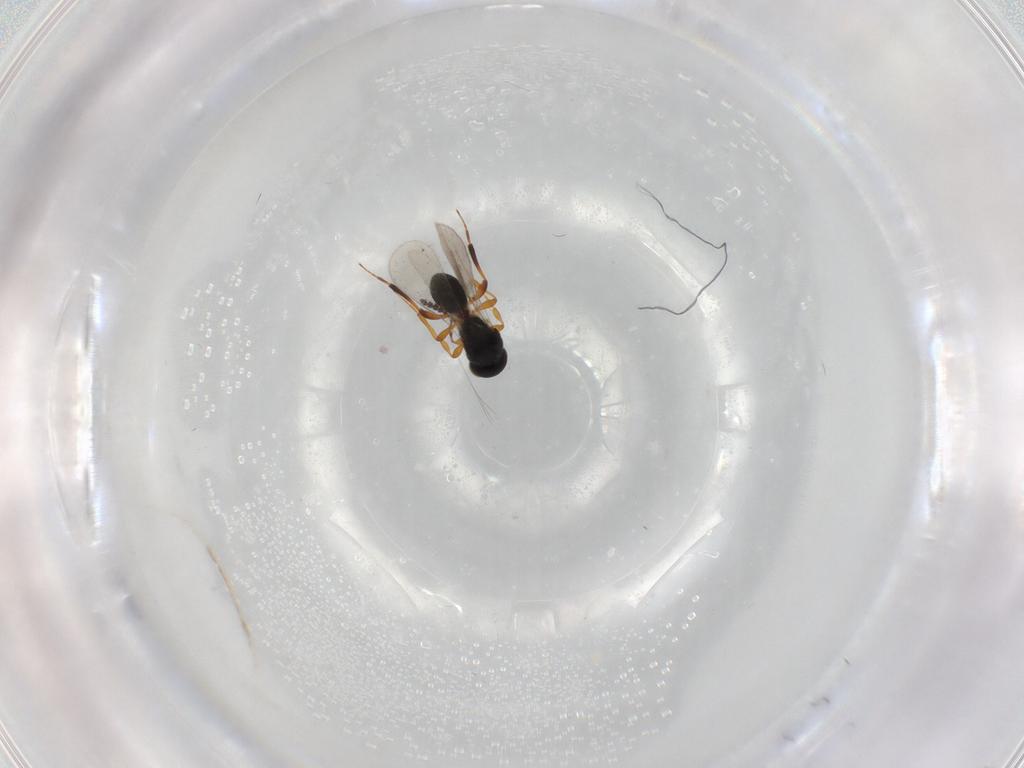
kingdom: Animalia
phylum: Arthropoda
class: Insecta
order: Hymenoptera
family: Platygastridae
